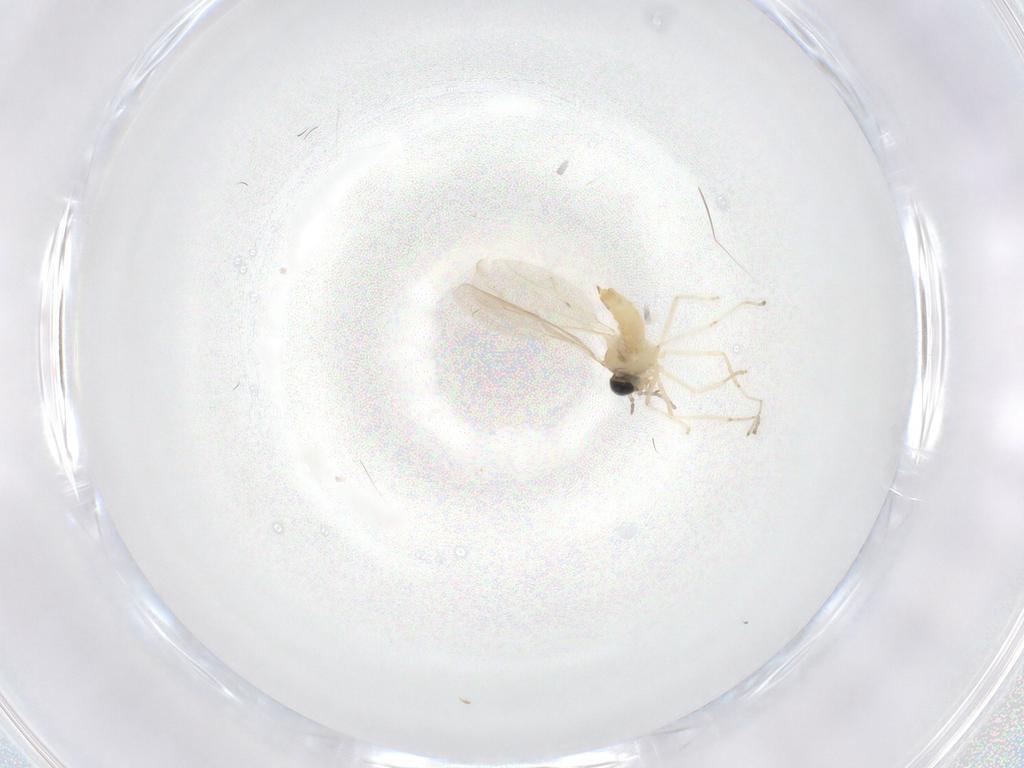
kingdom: Animalia
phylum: Arthropoda
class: Insecta
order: Diptera
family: Cecidomyiidae
